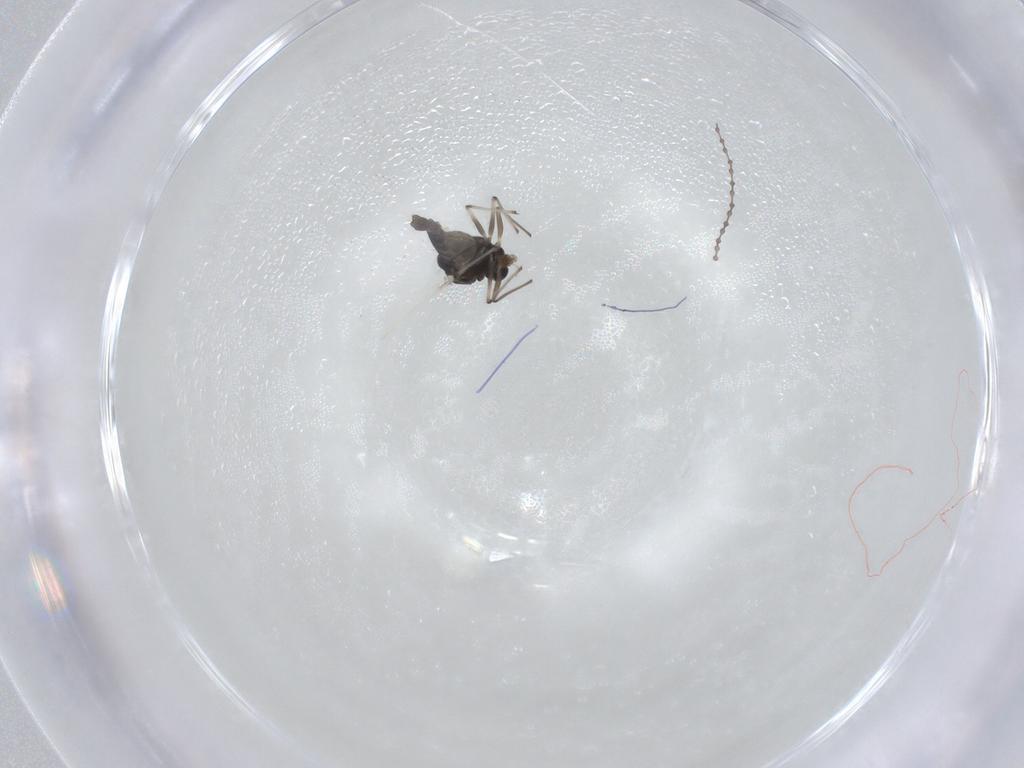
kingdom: Animalia
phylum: Arthropoda
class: Insecta
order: Diptera
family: Chironomidae
